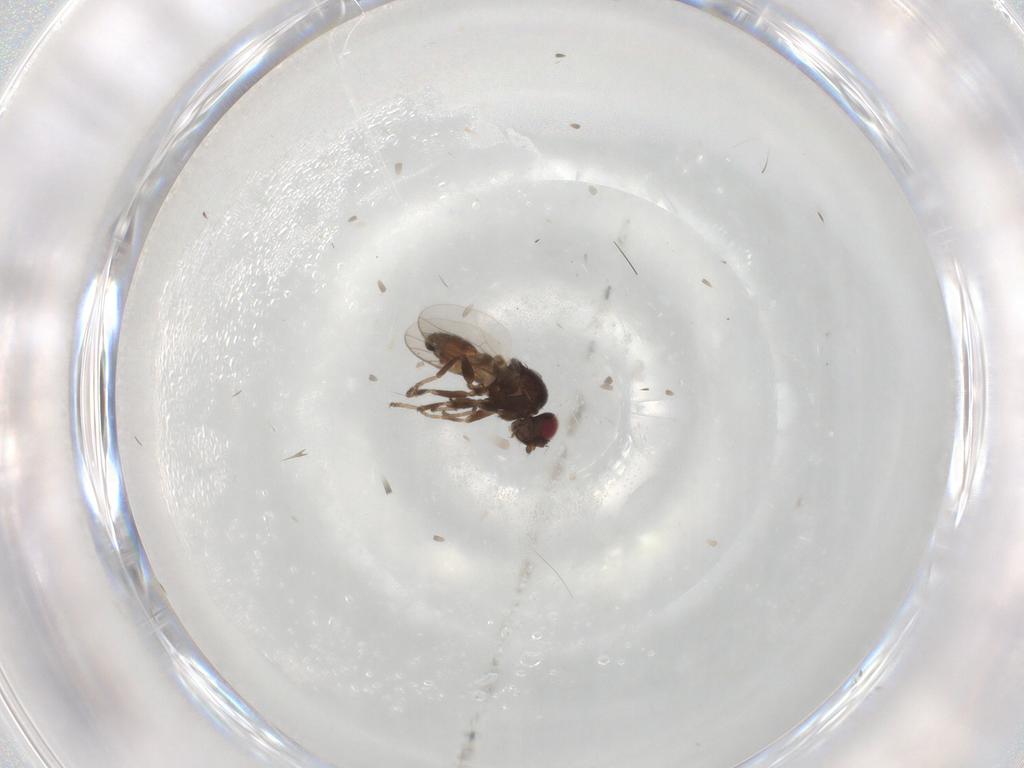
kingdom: Animalia
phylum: Arthropoda
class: Insecta
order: Diptera
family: Chloropidae
